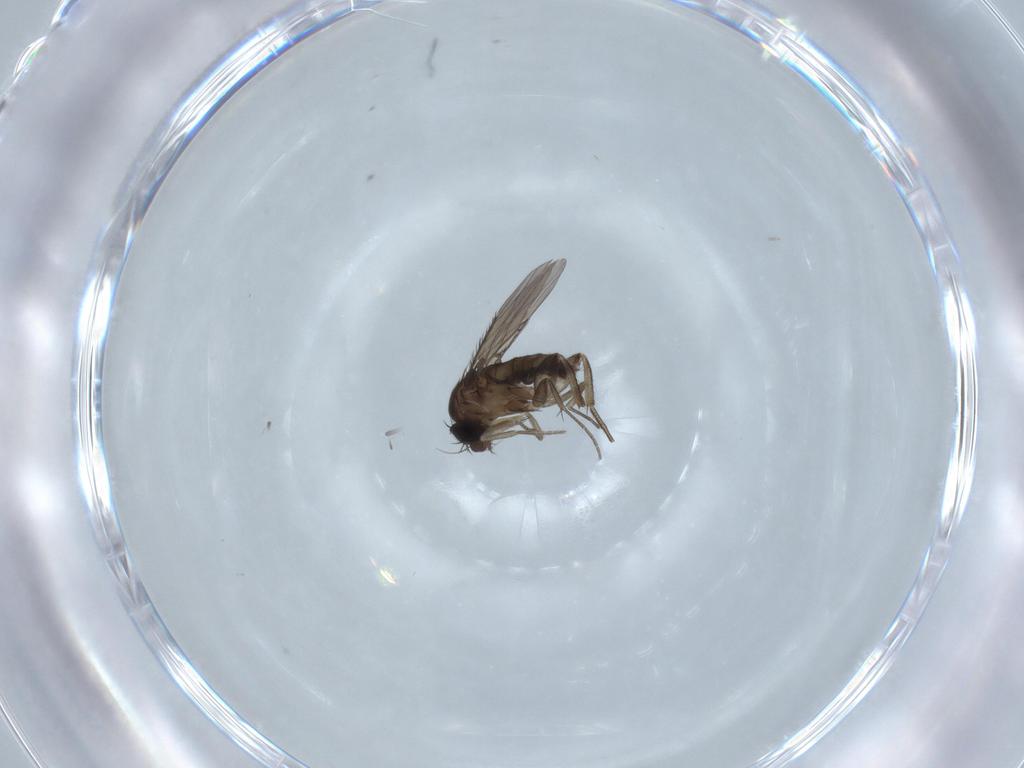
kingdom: Animalia
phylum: Arthropoda
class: Insecta
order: Diptera
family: Phoridae
